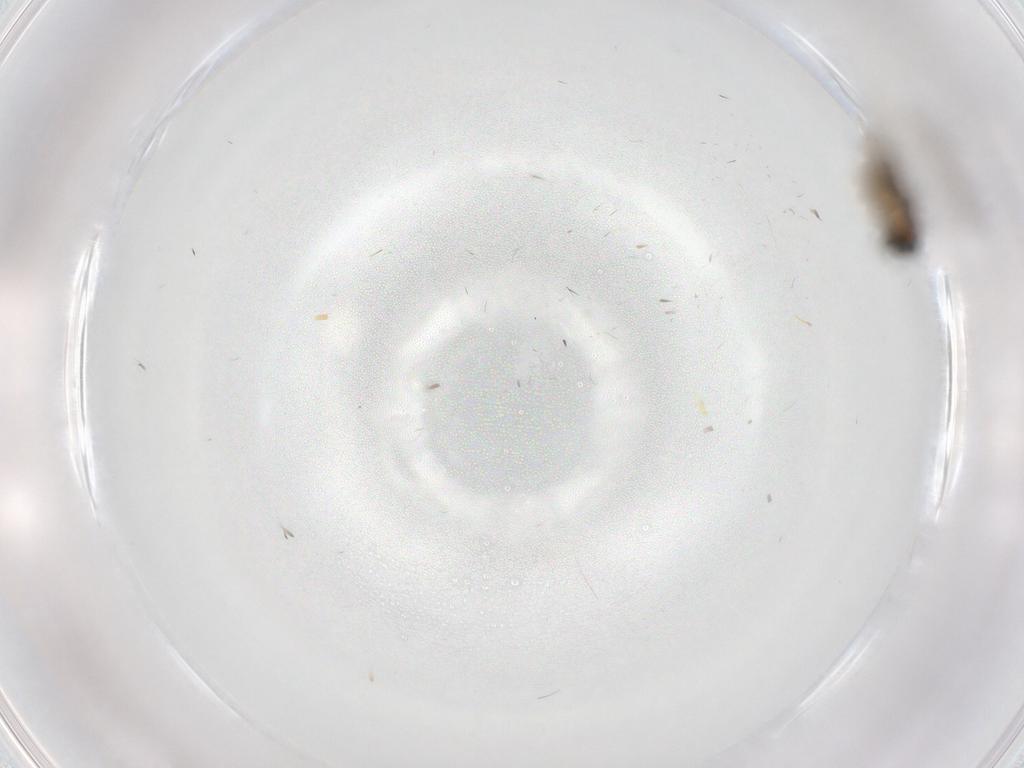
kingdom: Animalia
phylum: Arthropoda
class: Insecta
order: Diptera
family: Phoridae
